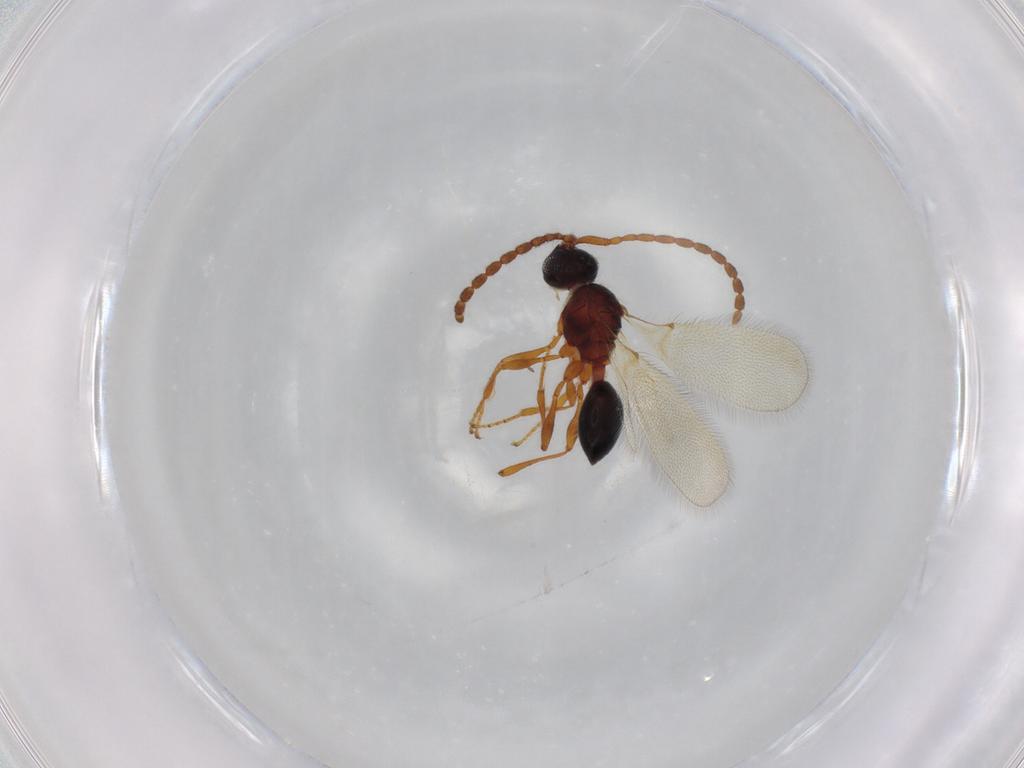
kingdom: Animalia
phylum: Arthropoda
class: Insecta
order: Hymenoptera
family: Diapriidae
